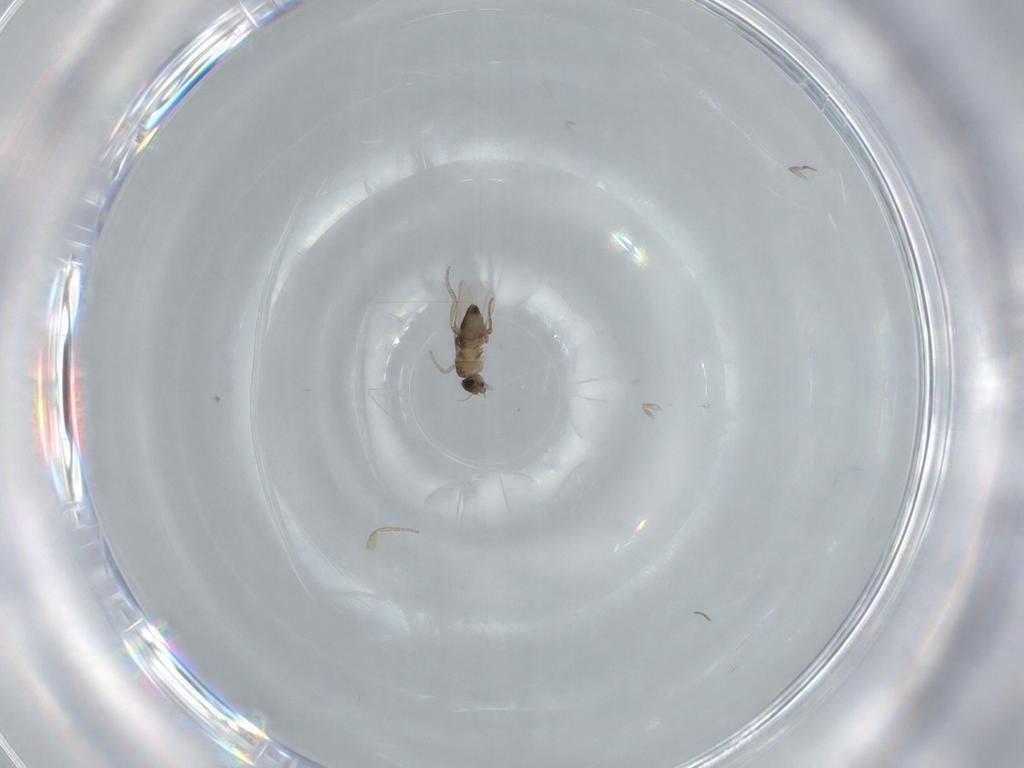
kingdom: Animalia
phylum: Arthropoda
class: Insecta
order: Diptera
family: Phoridae
